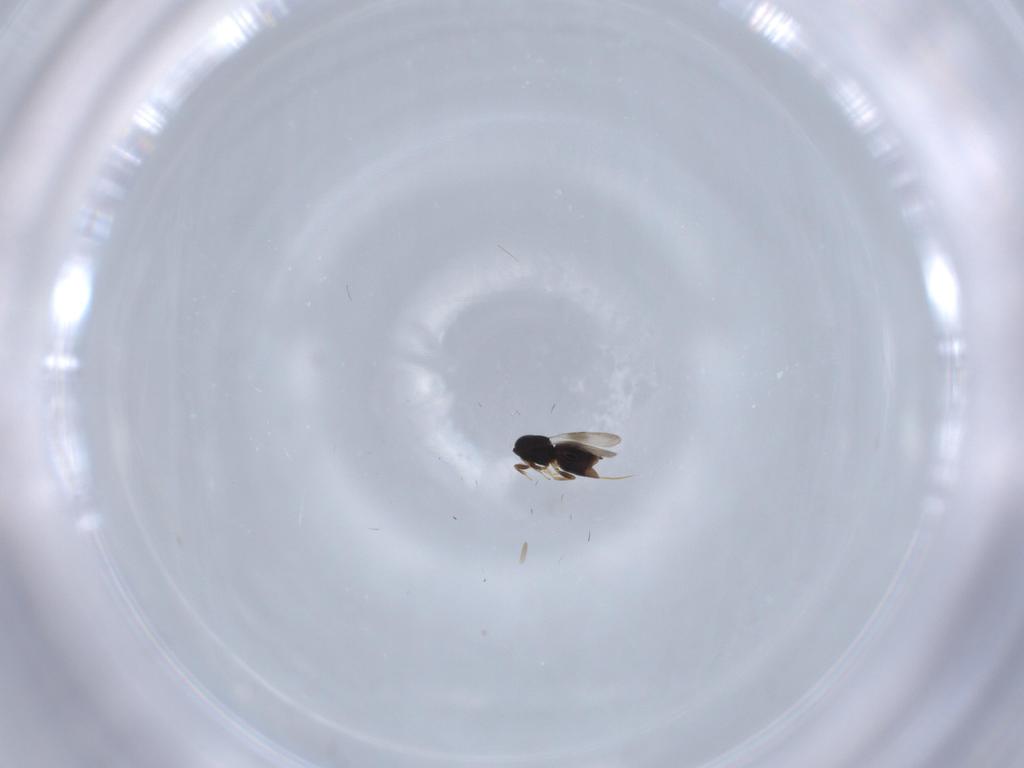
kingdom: Animalia
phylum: Arthropoda
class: Insecta
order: Hymenoptera
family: Ceraphronidae
